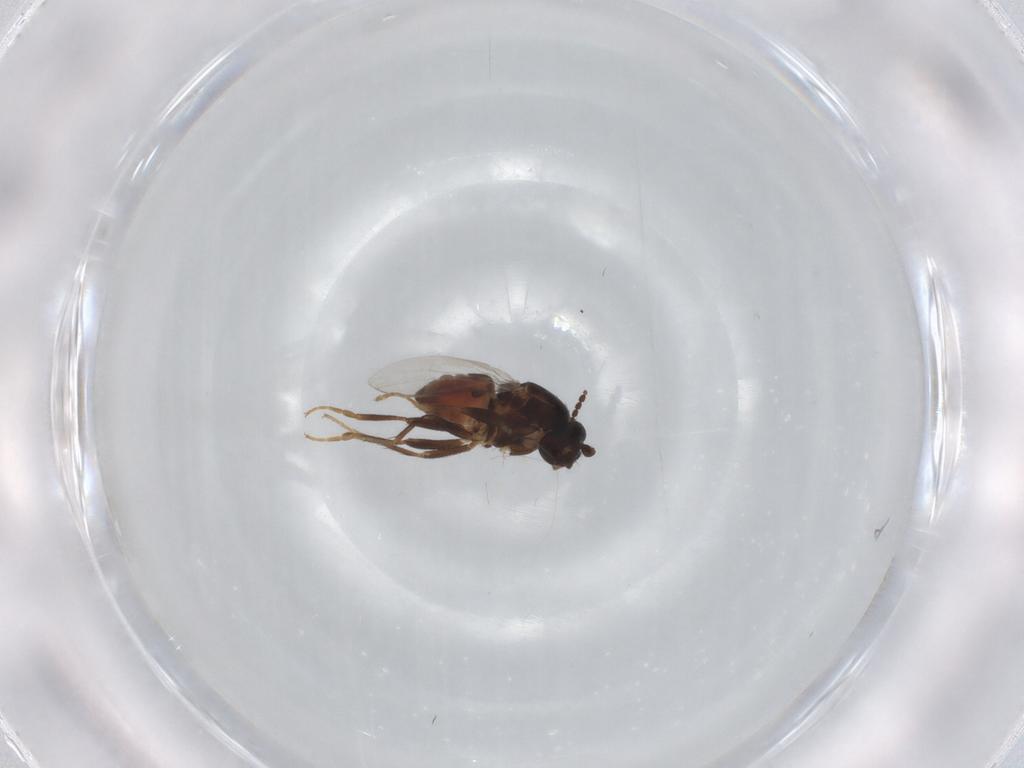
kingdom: Animalia
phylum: Arthropoda
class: Insecta
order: Diptera
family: Sphaeroceridae
